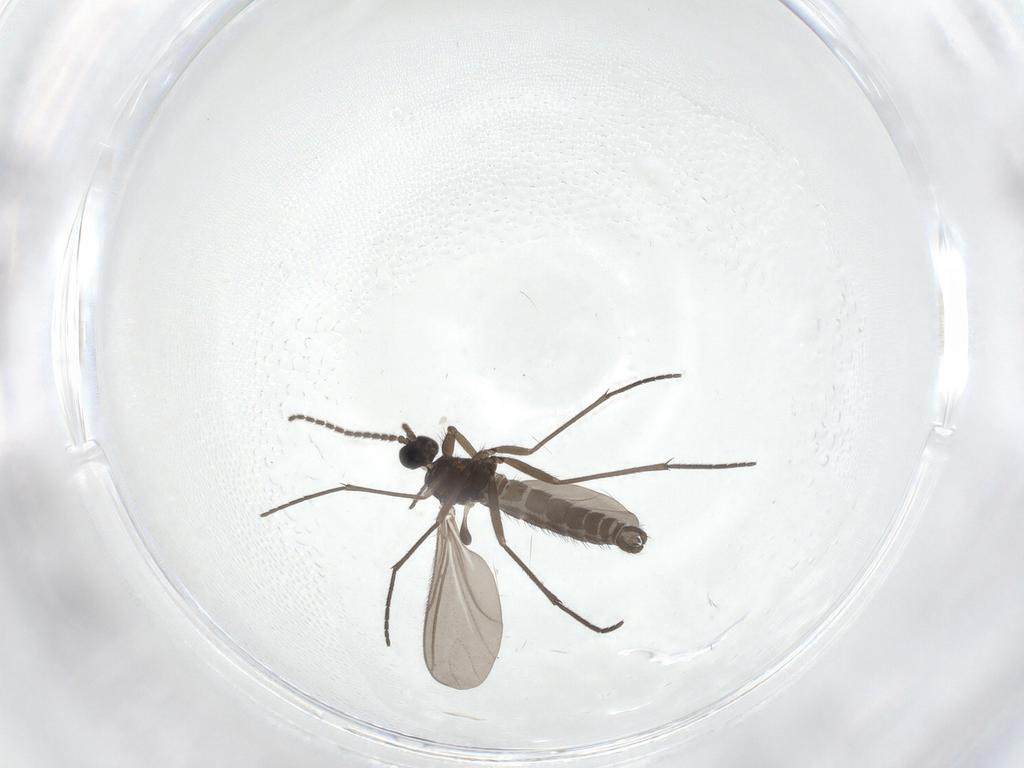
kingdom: Animalia
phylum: Arthropoda
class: Insecta
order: Diptera
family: Sciaridae
